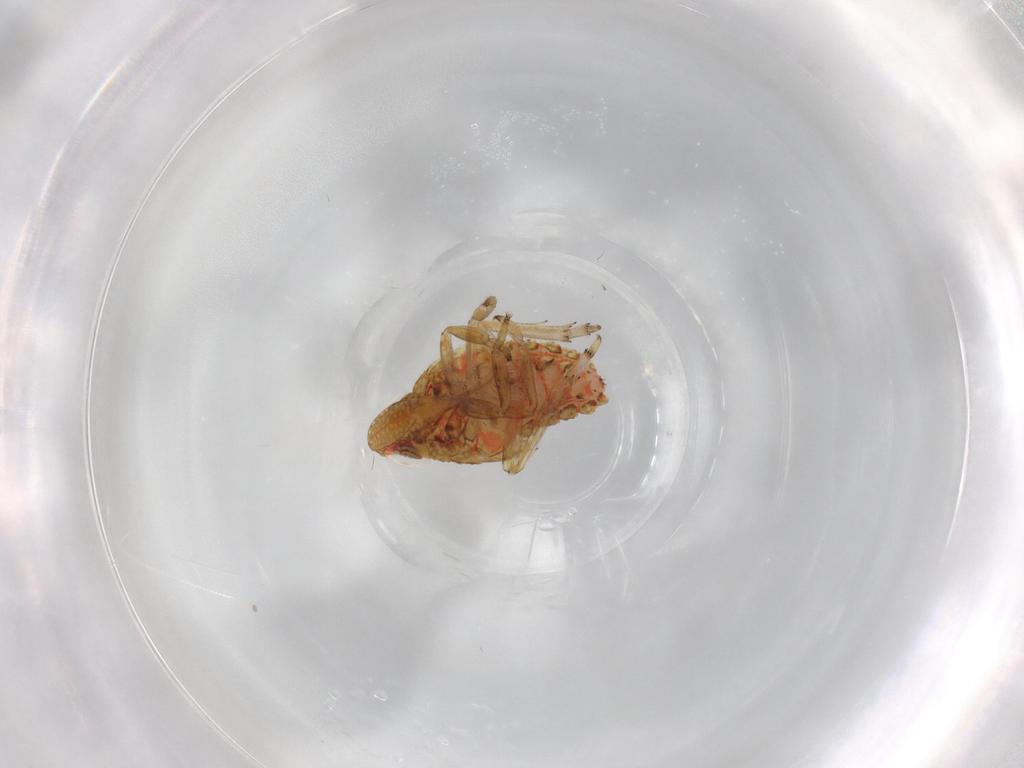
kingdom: Animalia
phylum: Arthropoda
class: Insecta
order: Hemiptera
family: Issidae
